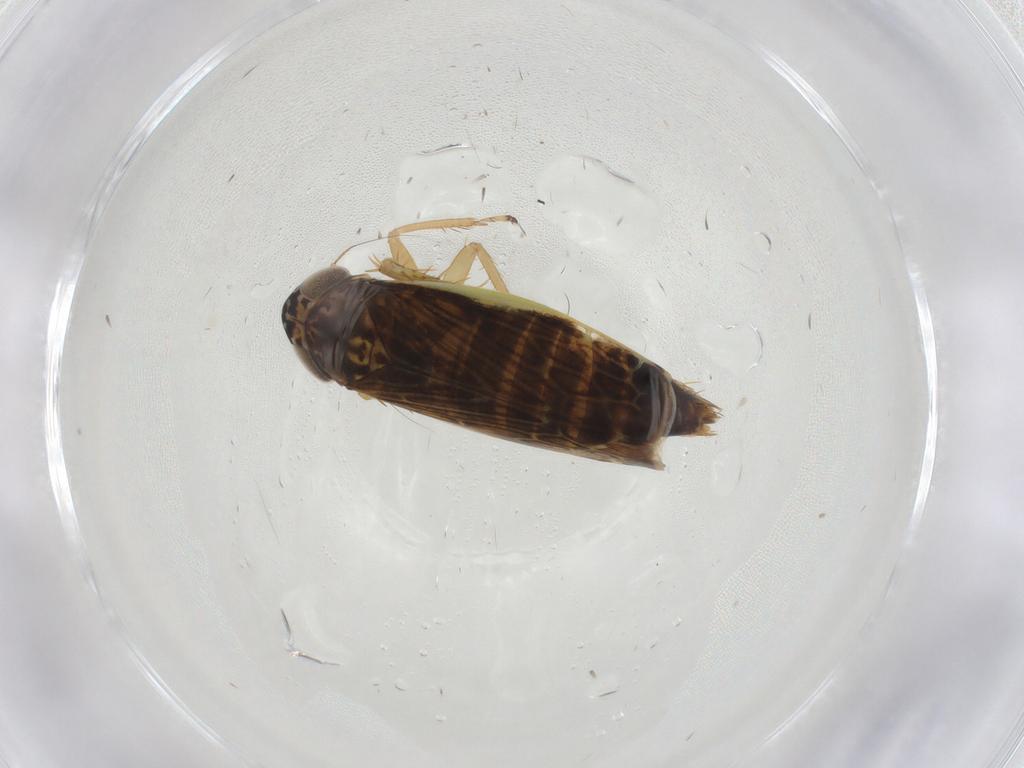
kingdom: Animalia
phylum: Arthropoda
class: Insecta
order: Hemiptera
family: Cicadellidae
